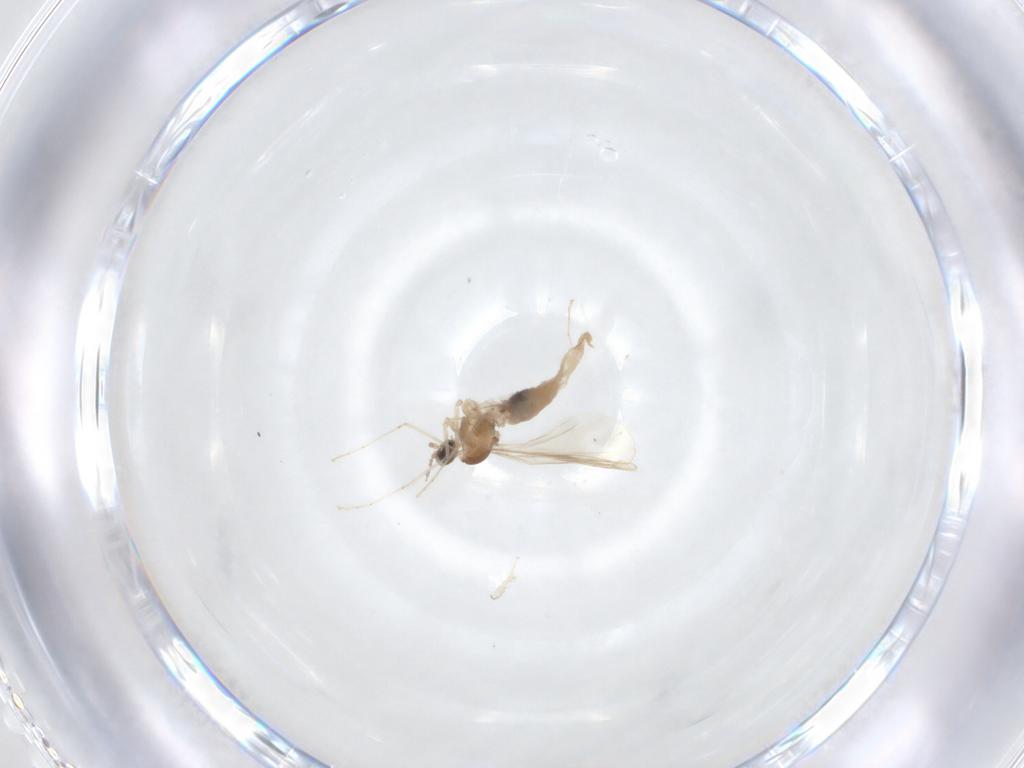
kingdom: Animalia
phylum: Arthropoda
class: Insecta
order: Diptera
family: Cecidomyiidae
